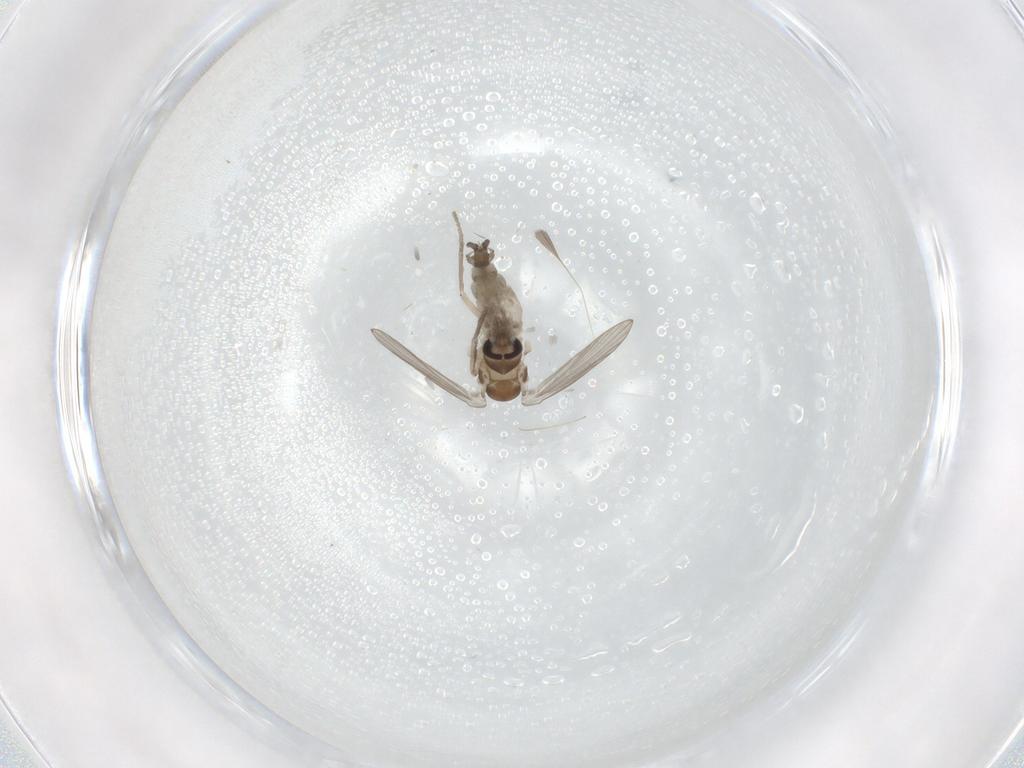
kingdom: Animalia
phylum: Arthropoda
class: Insecta
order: Diptera
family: Psychodidae
